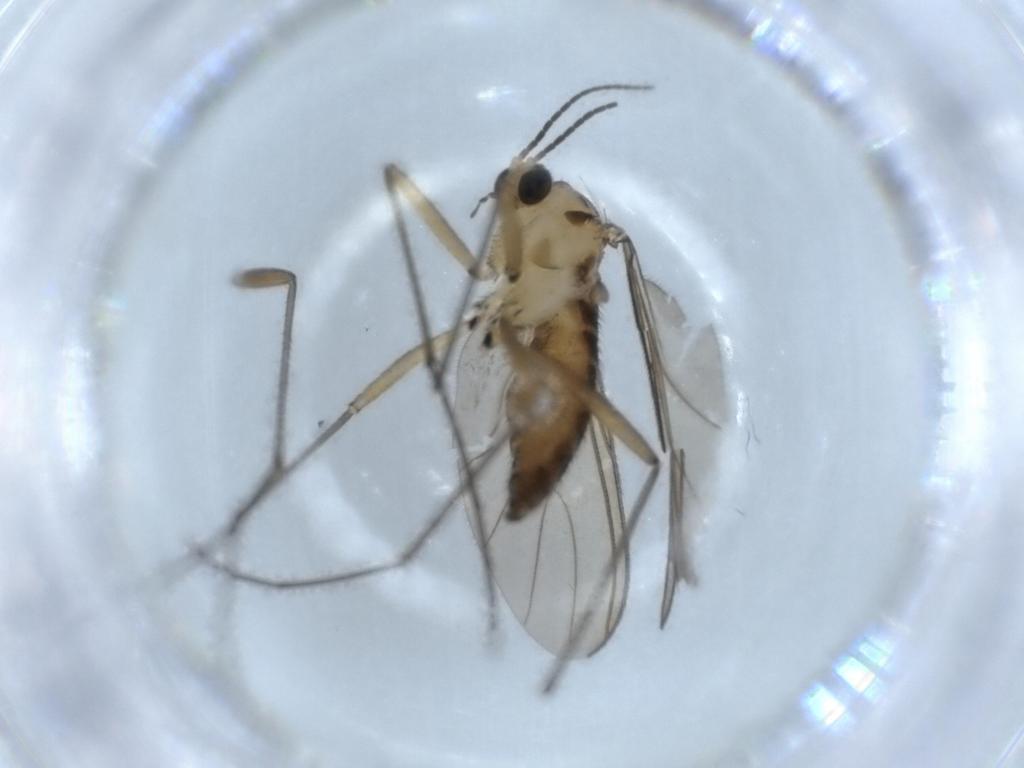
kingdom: Animalia
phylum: Arthropoda
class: Insecta
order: Diptera
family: Sciaridae
